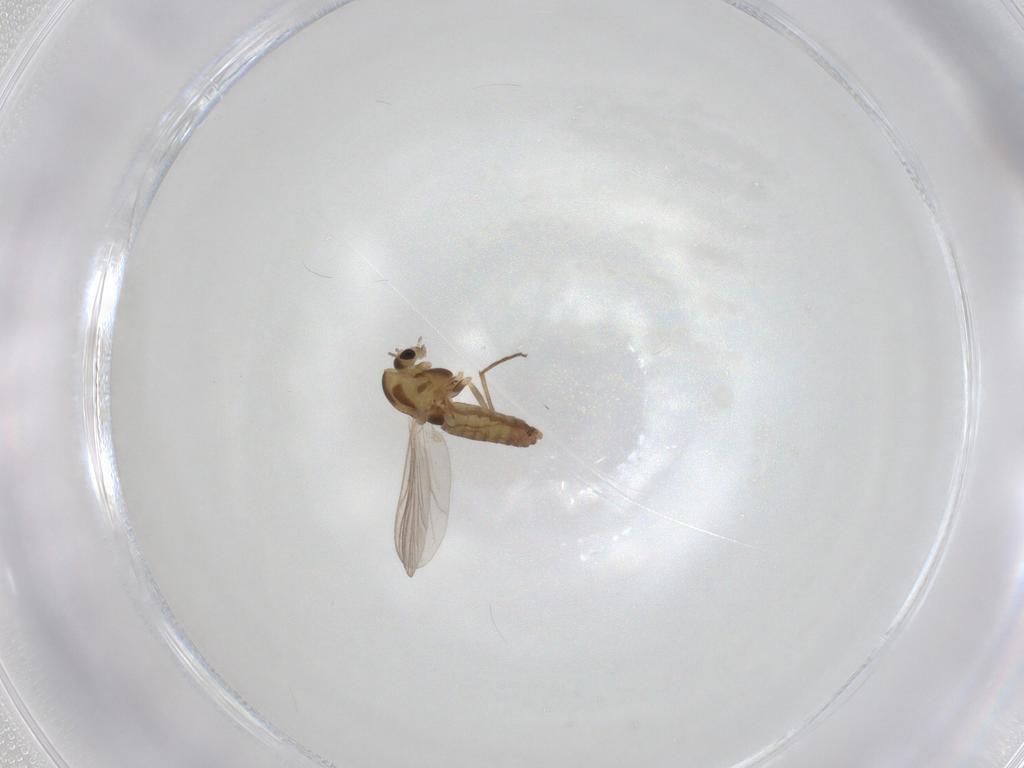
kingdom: Animalia
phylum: Arthropoda
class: Insecta
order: Diptera
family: Chironomidae
